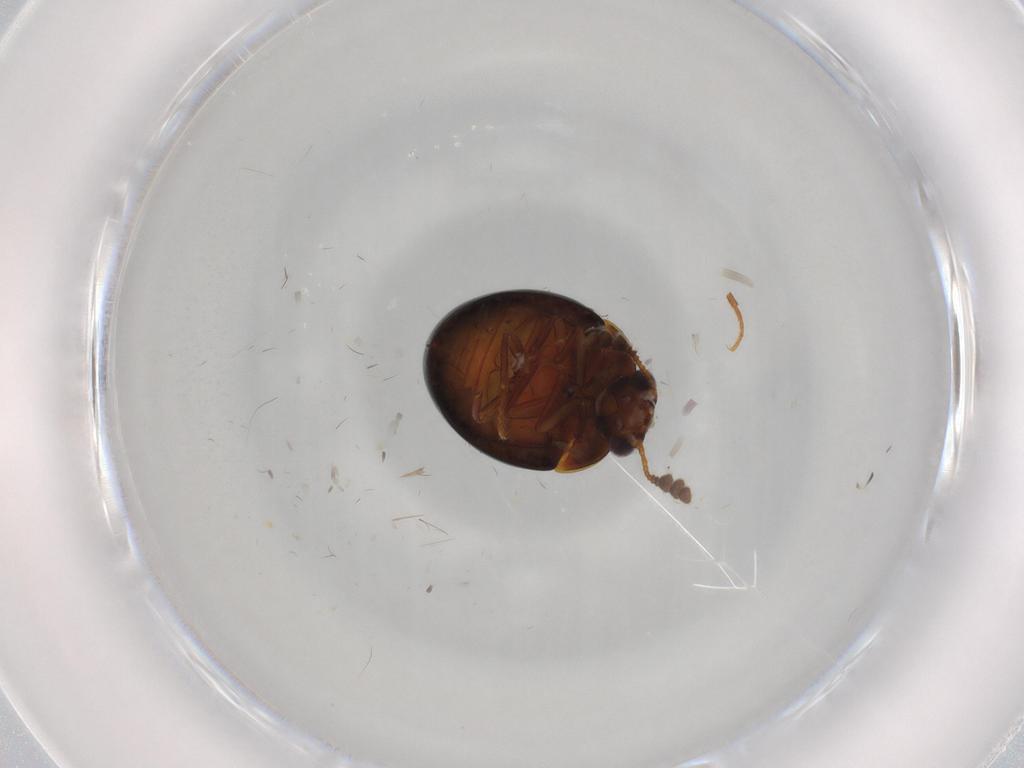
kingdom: Animalia
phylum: Arthropoda
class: Insecta
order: Coleoptera
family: Leiodidae
